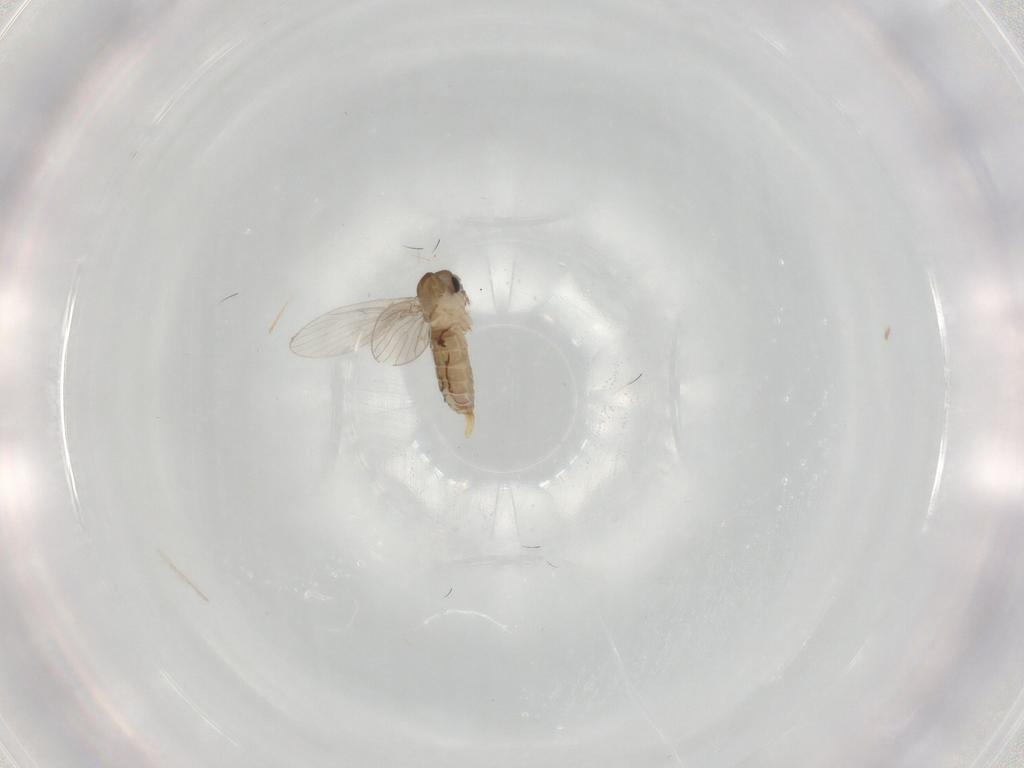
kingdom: Animalia
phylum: Arthropoda
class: Insecta
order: Diptera
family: Psychodidae
